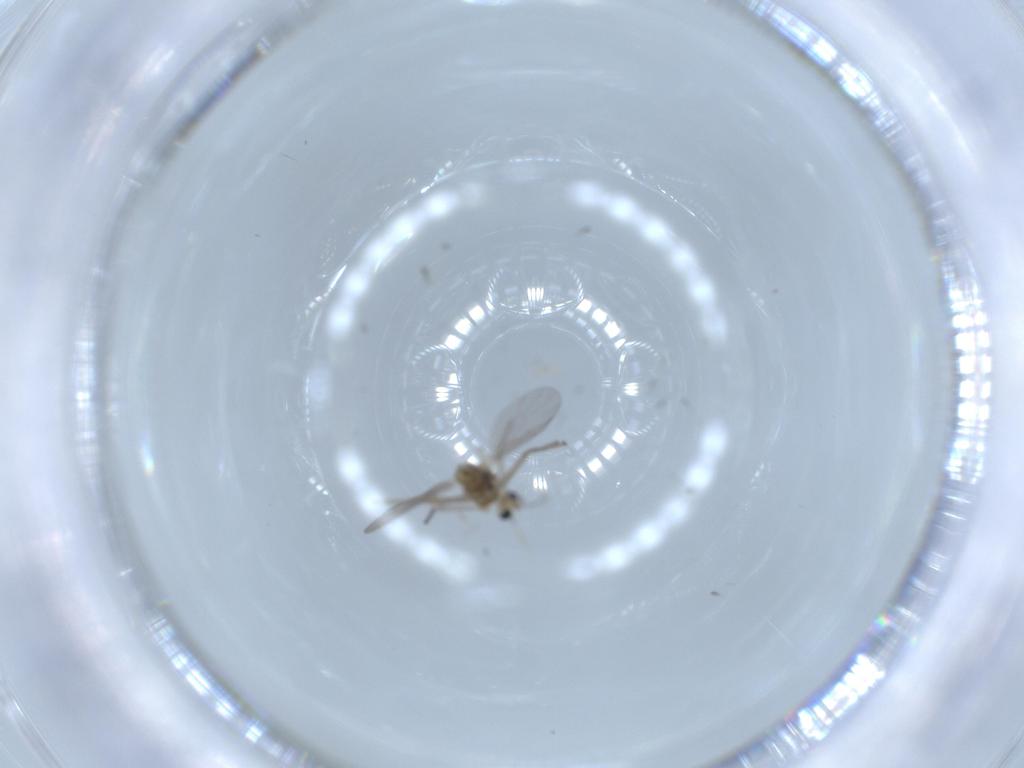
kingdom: Animalia
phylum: Arthropoda
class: Insecta
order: Diptera
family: Chironomidae
